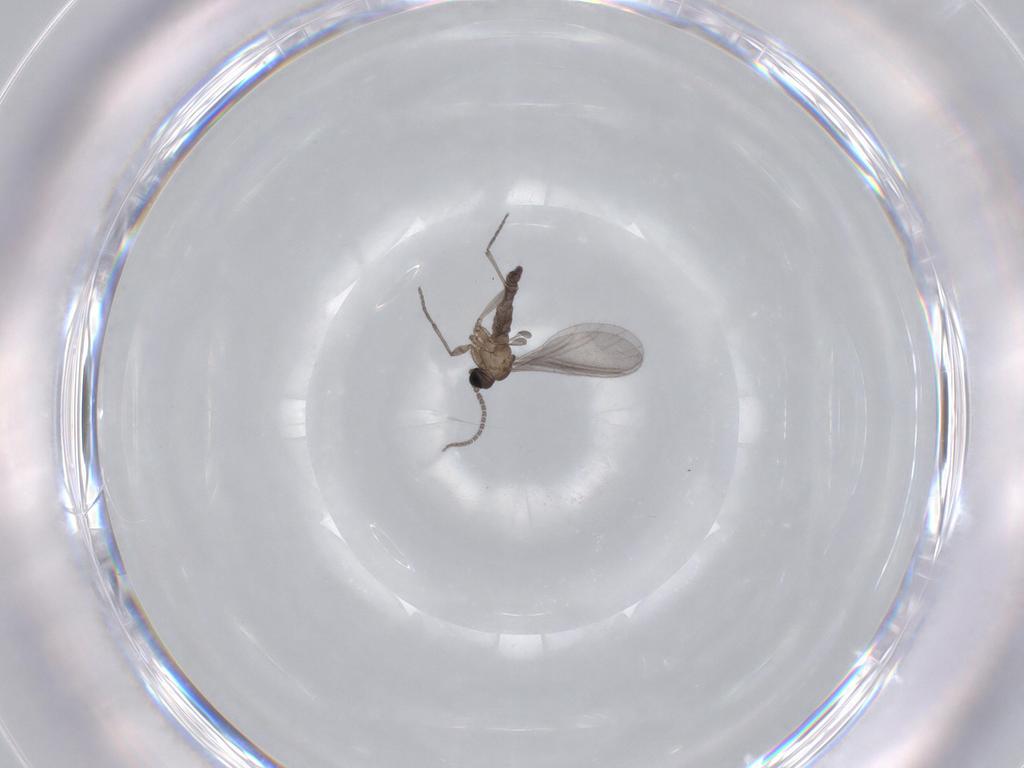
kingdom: Animalia
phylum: Arthropoda
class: Insecta
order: Diptera
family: Sciaridae
